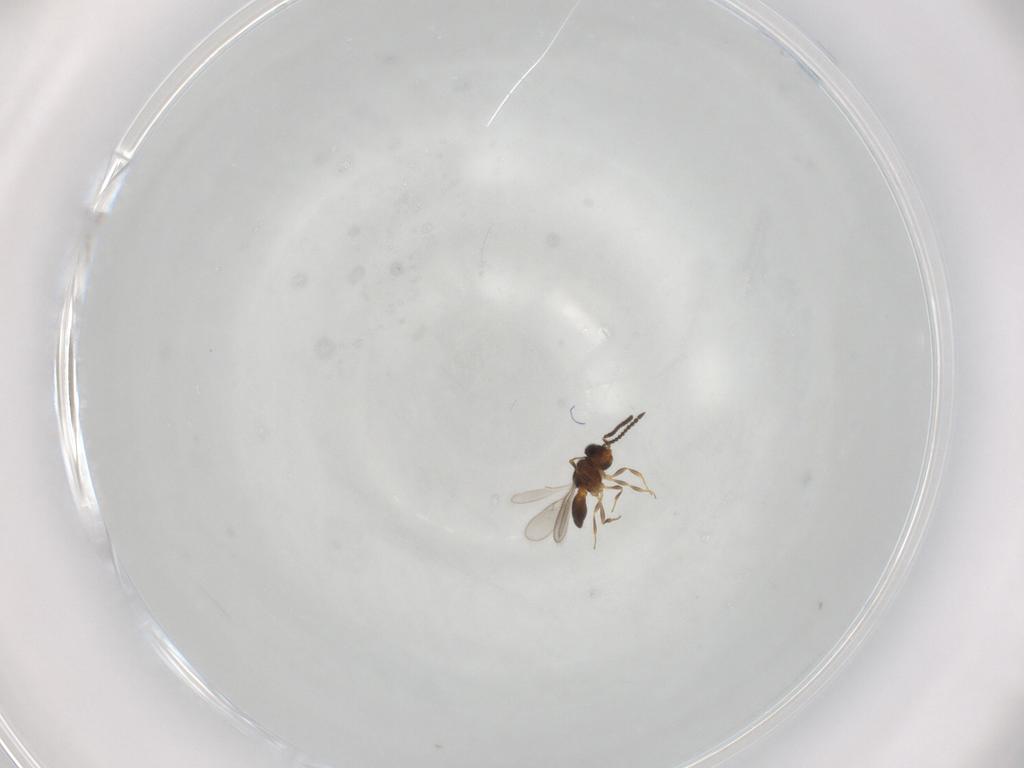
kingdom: Animalia
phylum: Arthropoda
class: Insecta
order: Hymenoptera
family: Scelionidae
